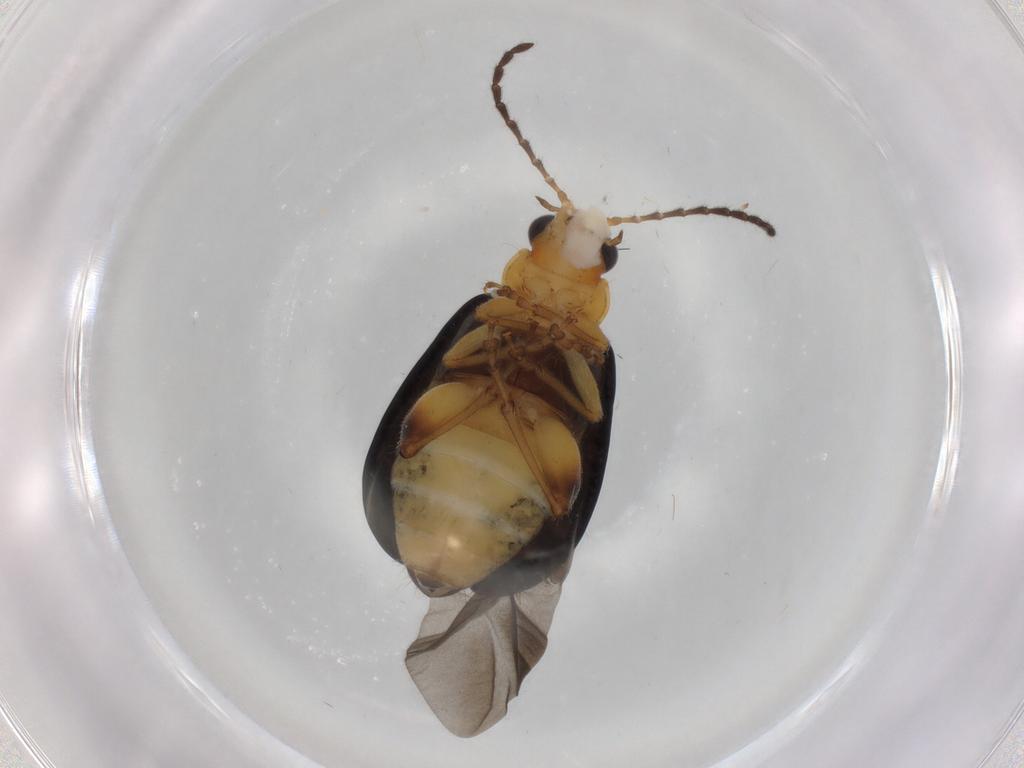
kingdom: Animalia
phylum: Arthropoda
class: Insecta
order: Coleoptera
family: Chrysomelidae
